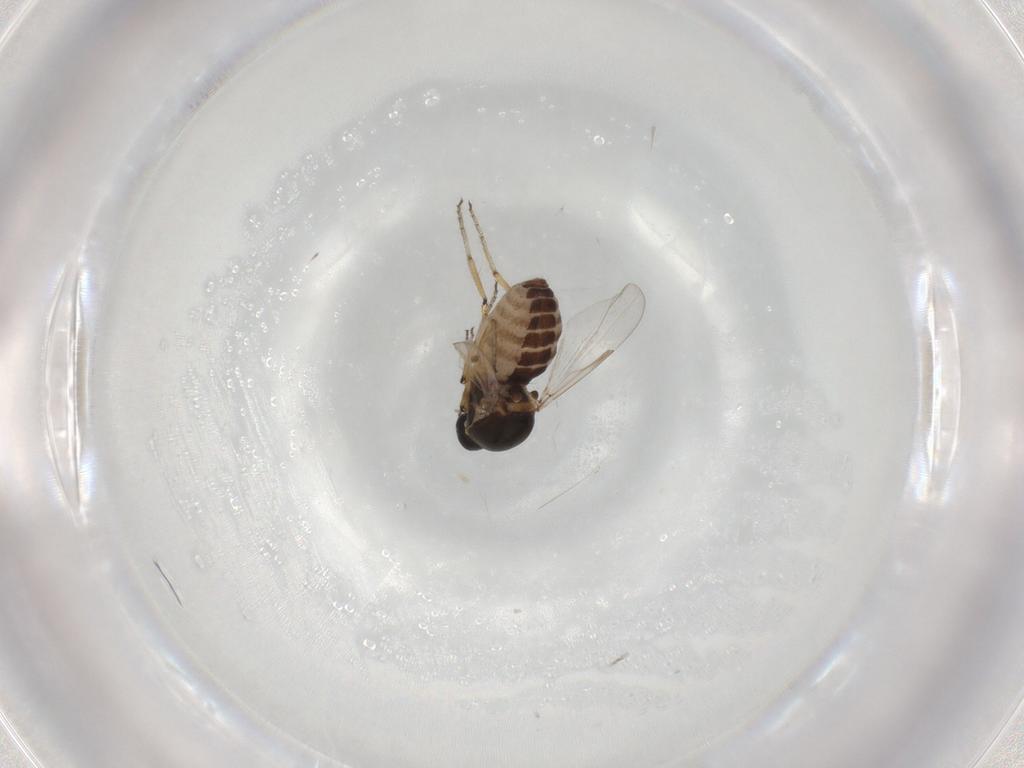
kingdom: Animalia
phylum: Arthropoda
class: Insecta
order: Diptera
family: Ceratopogonidae
